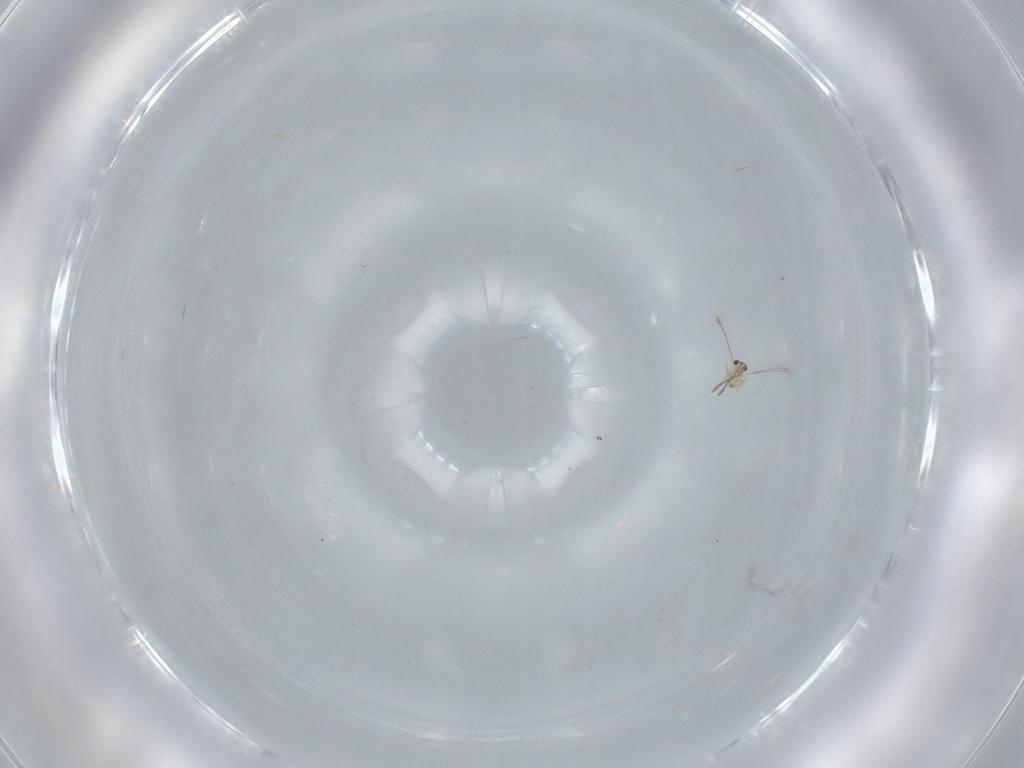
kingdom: Animalia
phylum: Arthropoda
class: Insecta
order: Hymenoptera
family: Mymaridae
